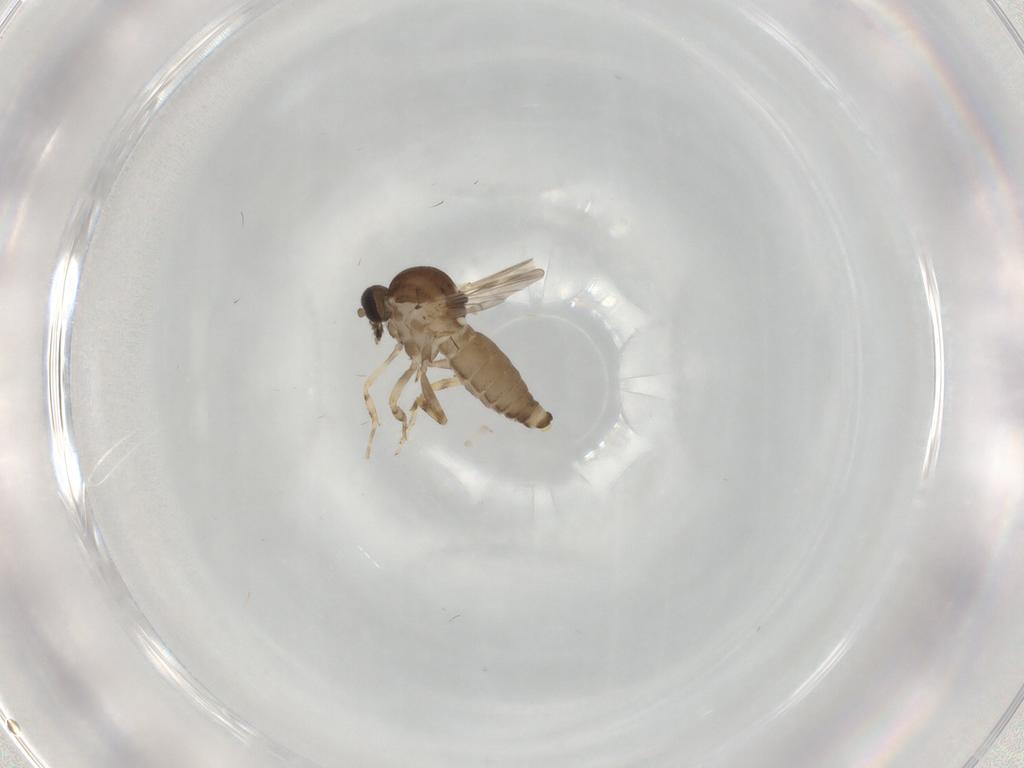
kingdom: Animalia
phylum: Arthropoda
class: Insecta
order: Diptera
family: Ceratopogonidae
